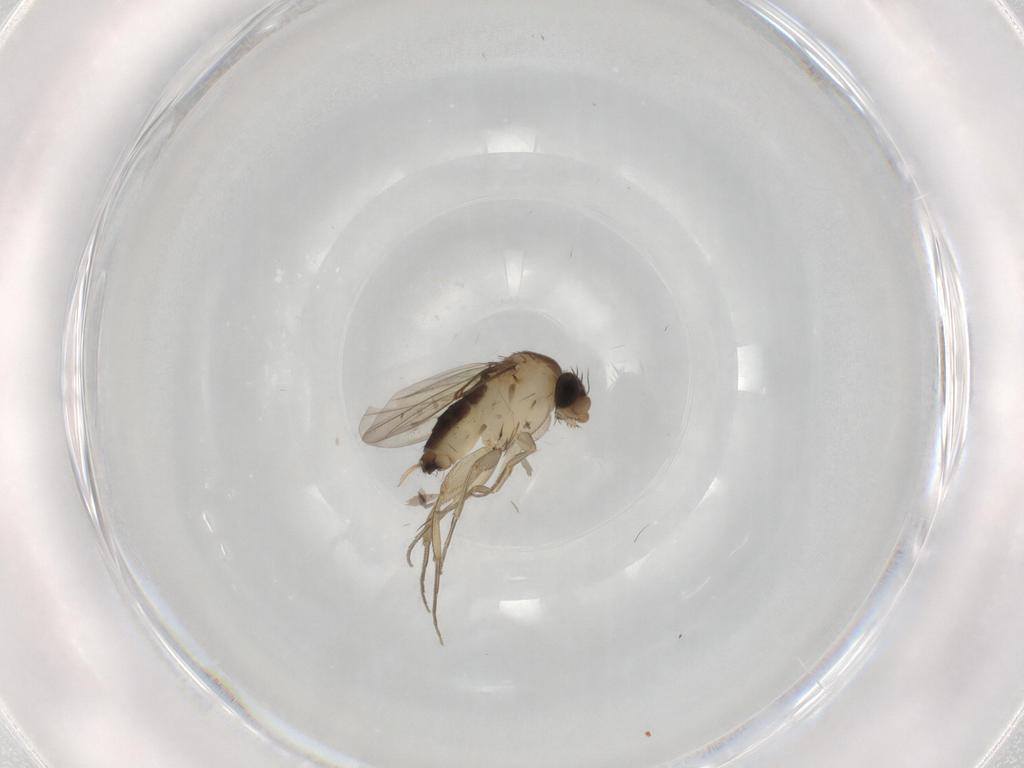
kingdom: Animalia
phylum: Arthropoda
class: Insecta
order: Diptera
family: Phoridae
